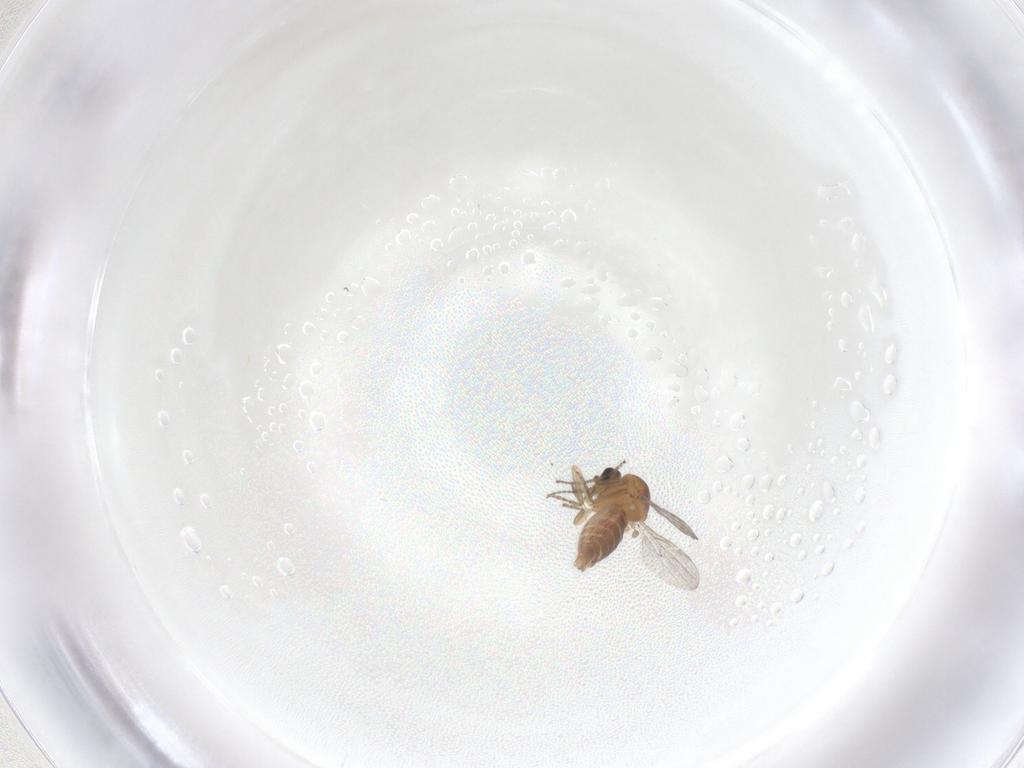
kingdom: Animalia
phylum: Arthropoda
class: Insecta
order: Diptera
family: Ceratopogonidae
